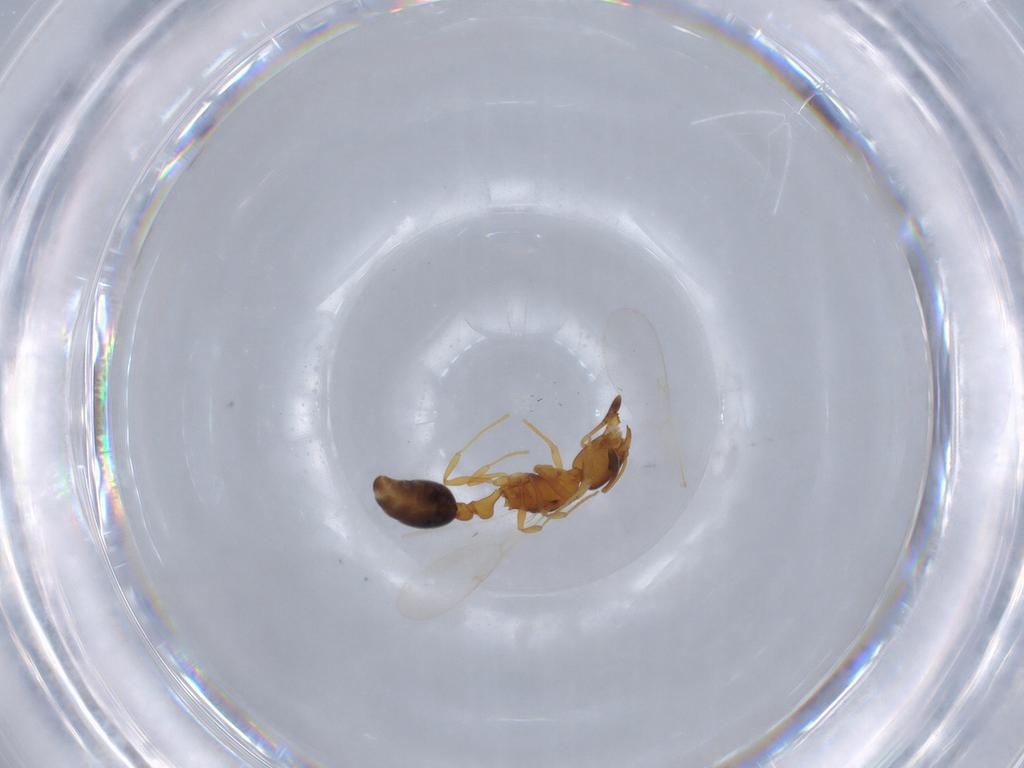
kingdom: Animalia
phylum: Arthropoda
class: Insecta
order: Hymenoptera
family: Formicidae
